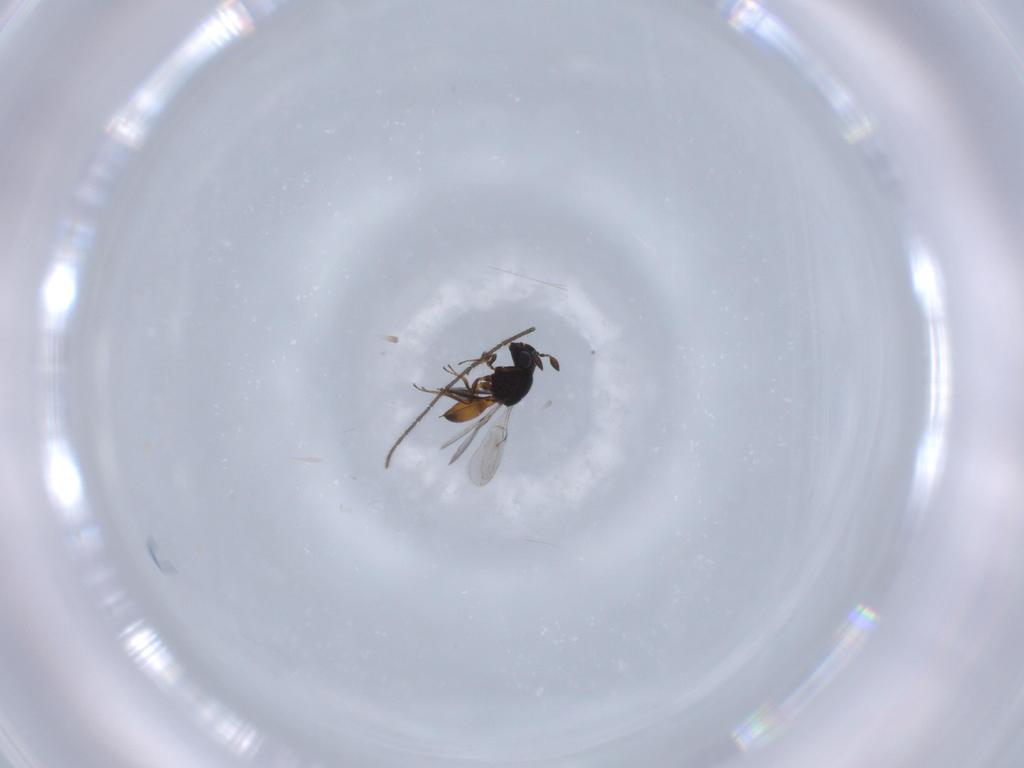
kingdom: Animalia
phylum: Arthropoda
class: Insecta
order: Hymenoptera
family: Scelionidae
